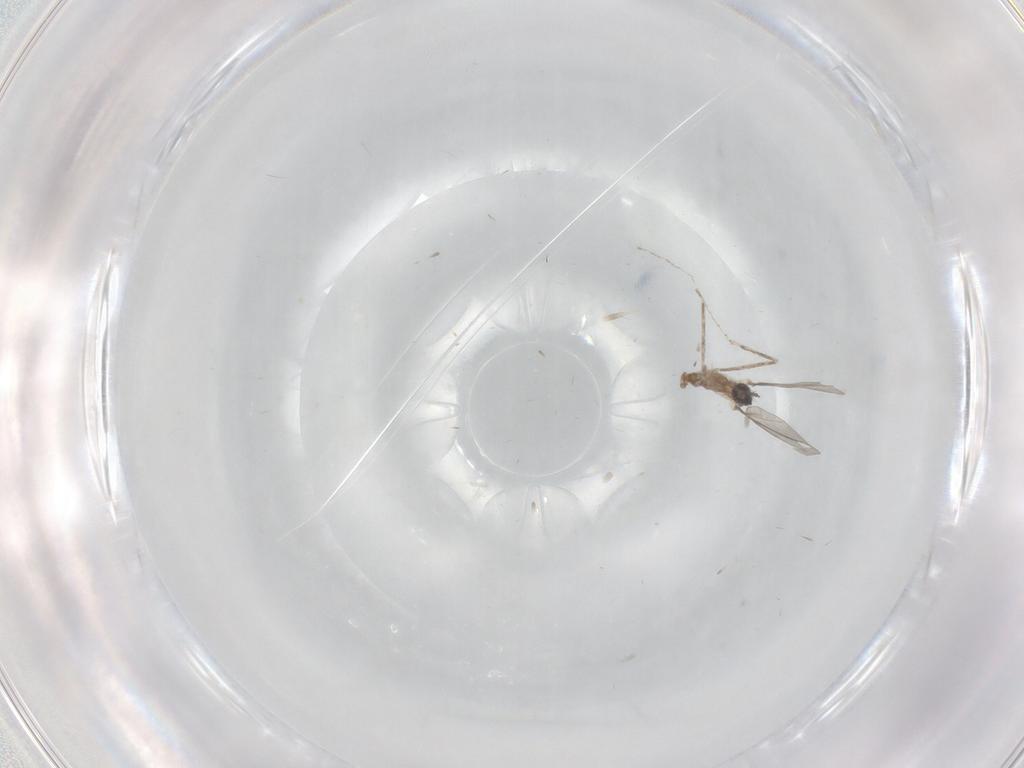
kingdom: Animalia
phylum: Arthropoda
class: Insecta
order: Diptera
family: Cecidomyiidae
